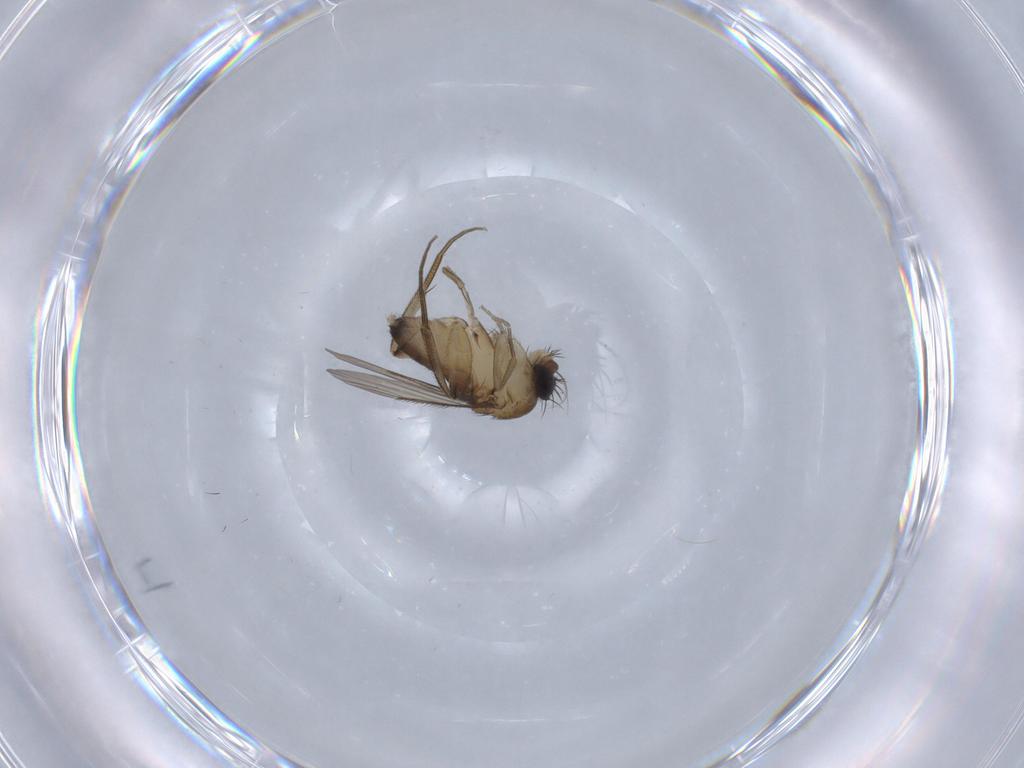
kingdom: Animalia
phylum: Arthropoda
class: Insecta
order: Diptera
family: Phoridae
